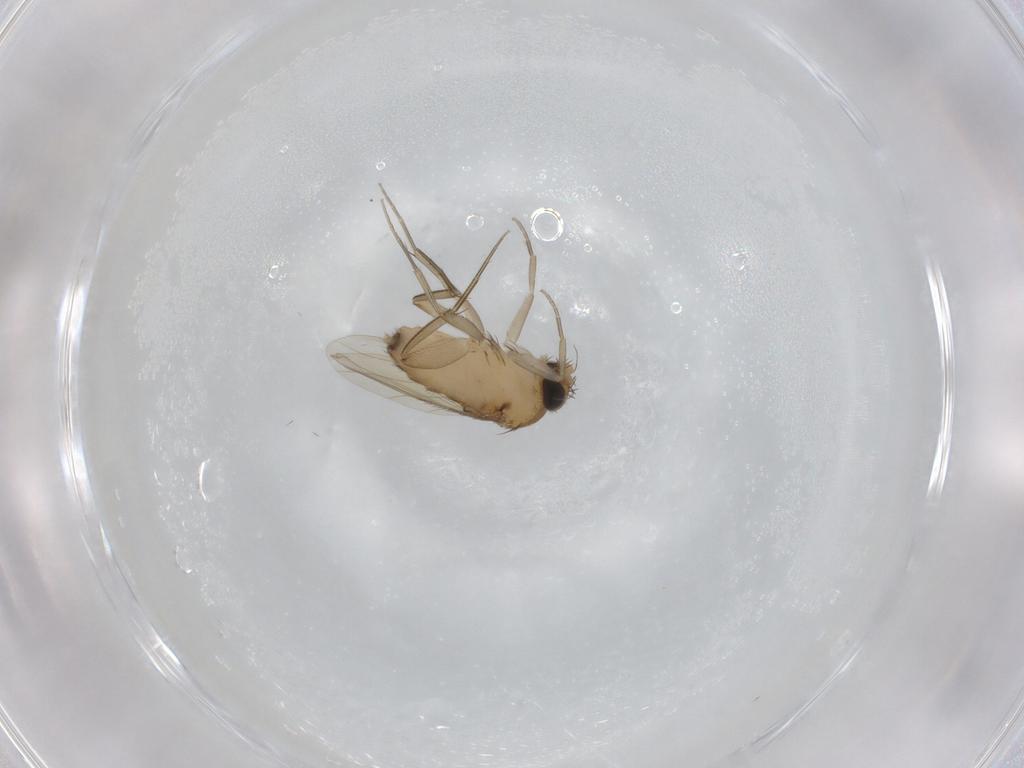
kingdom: Animalia
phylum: Arthropoda
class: Insecta
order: Diptera
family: Phoridae
